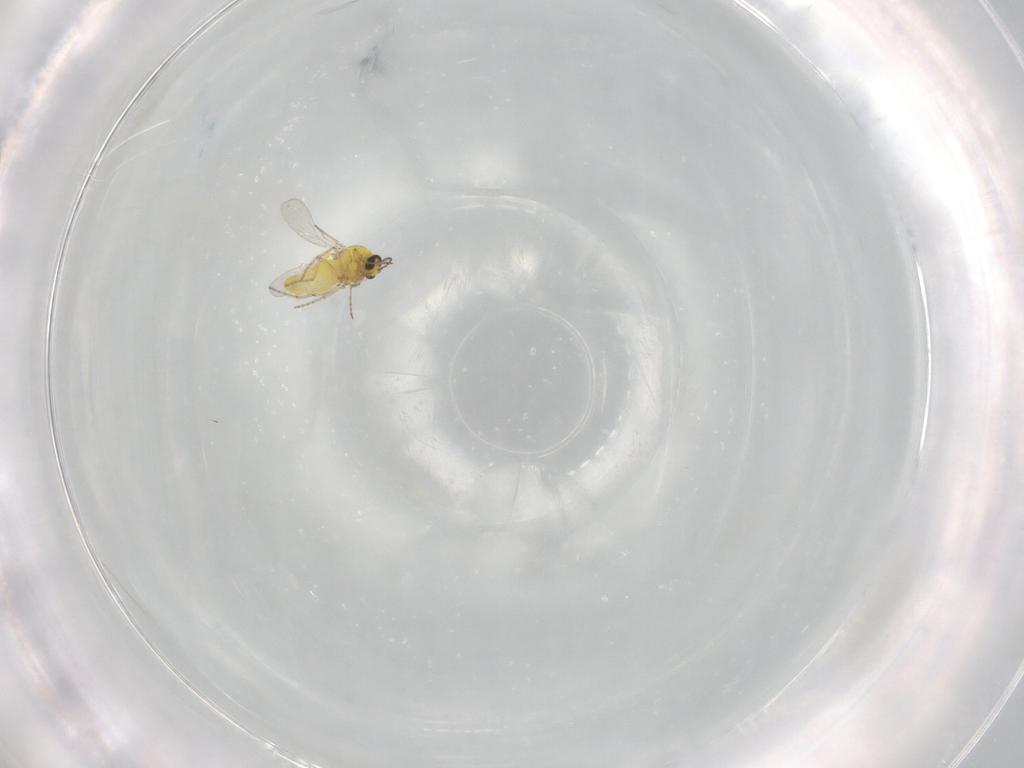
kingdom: Animalia
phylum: Arthropoda
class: Insecta
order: Diptera
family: Ceratopogonidae
